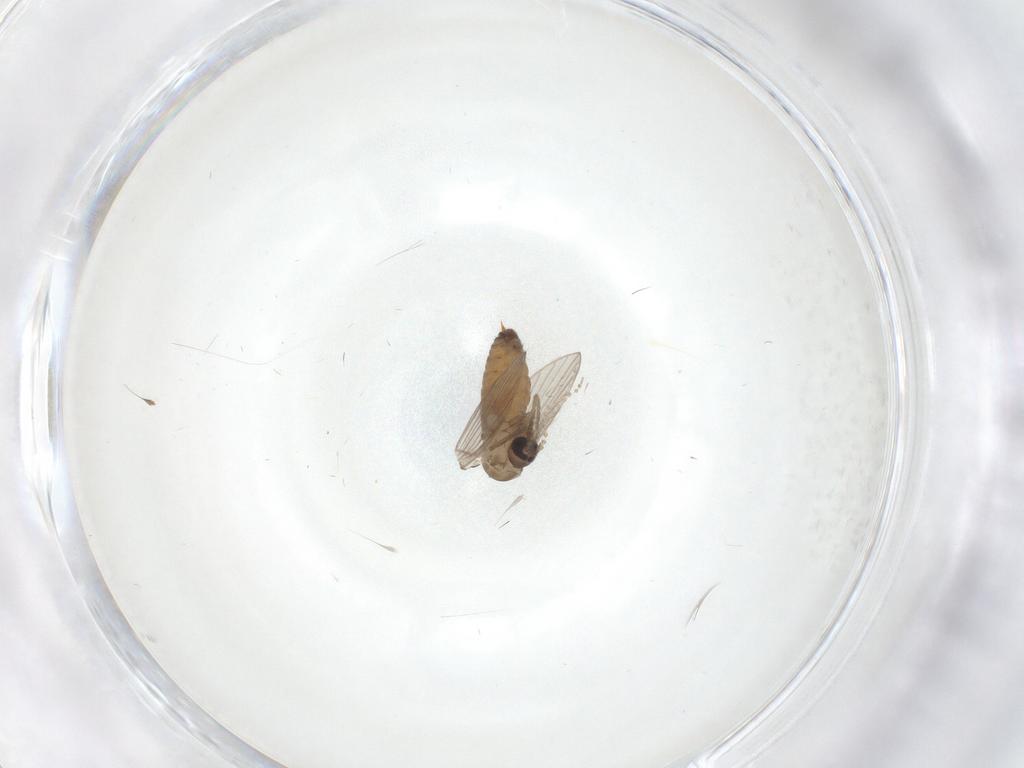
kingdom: Animalia
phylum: Arthropoda
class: Insecta
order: Diptera
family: Psychodidae
